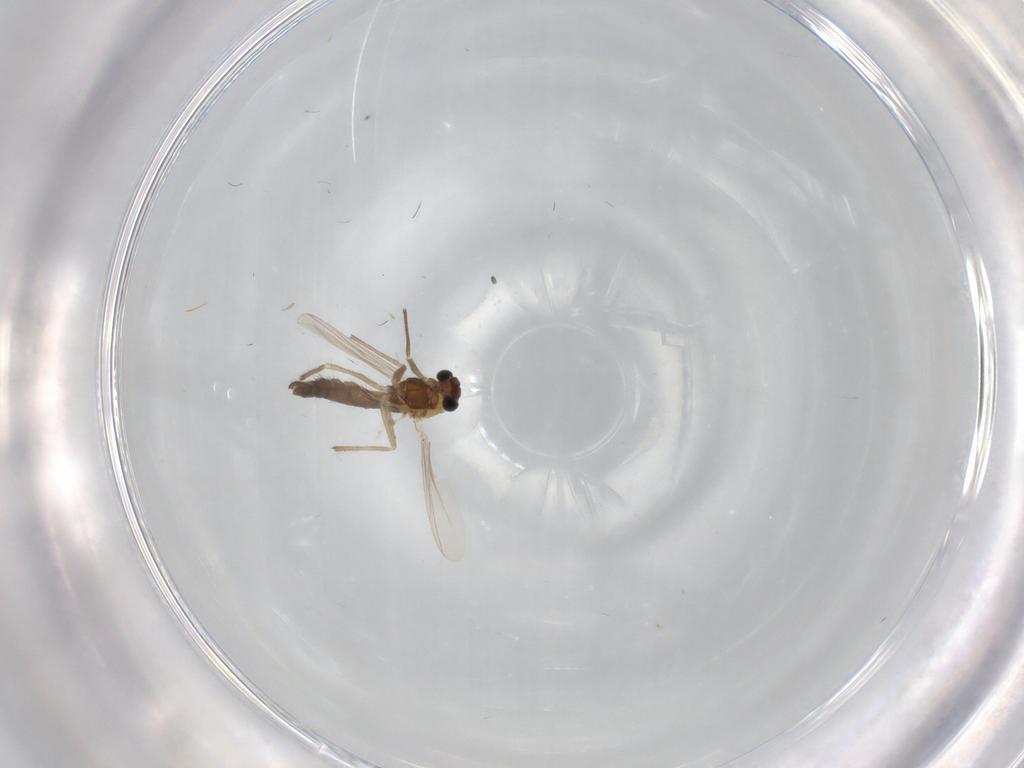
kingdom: Animalia
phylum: Arthropoda
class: Insecta
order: Diptera
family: Chironomidae
